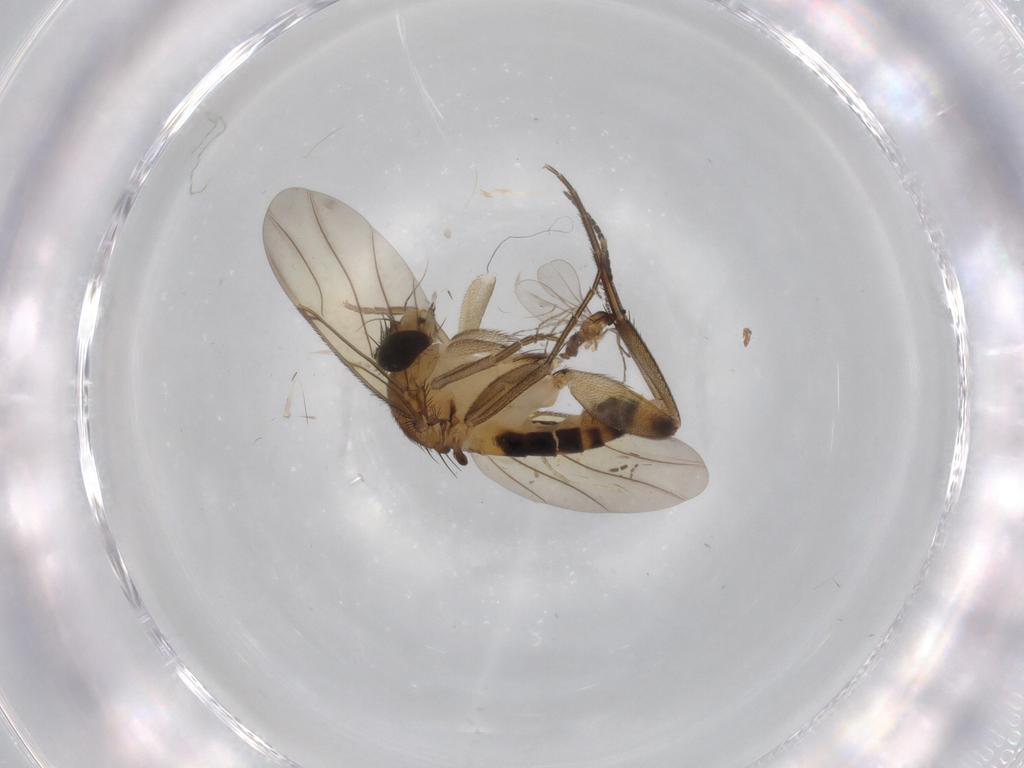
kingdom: Animalia
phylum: Arthropoda
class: Insecta
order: Diptera
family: Phoridae
